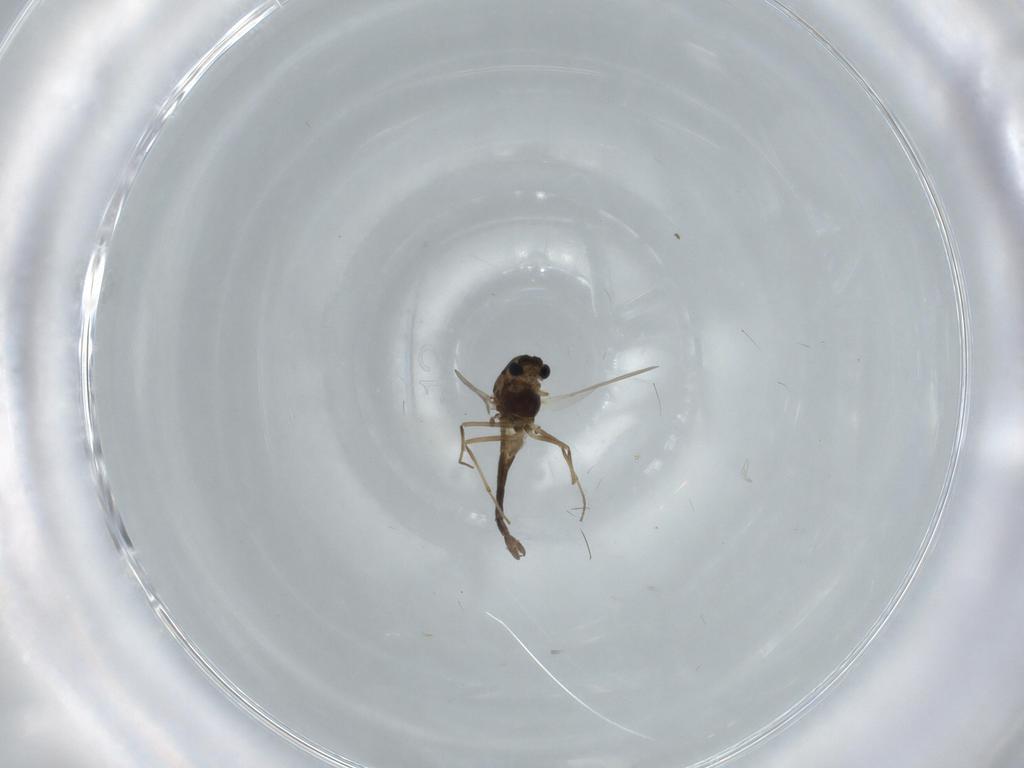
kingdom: Animalia
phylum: Arthropoda
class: Insecta
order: Diptera
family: Chironomidae
